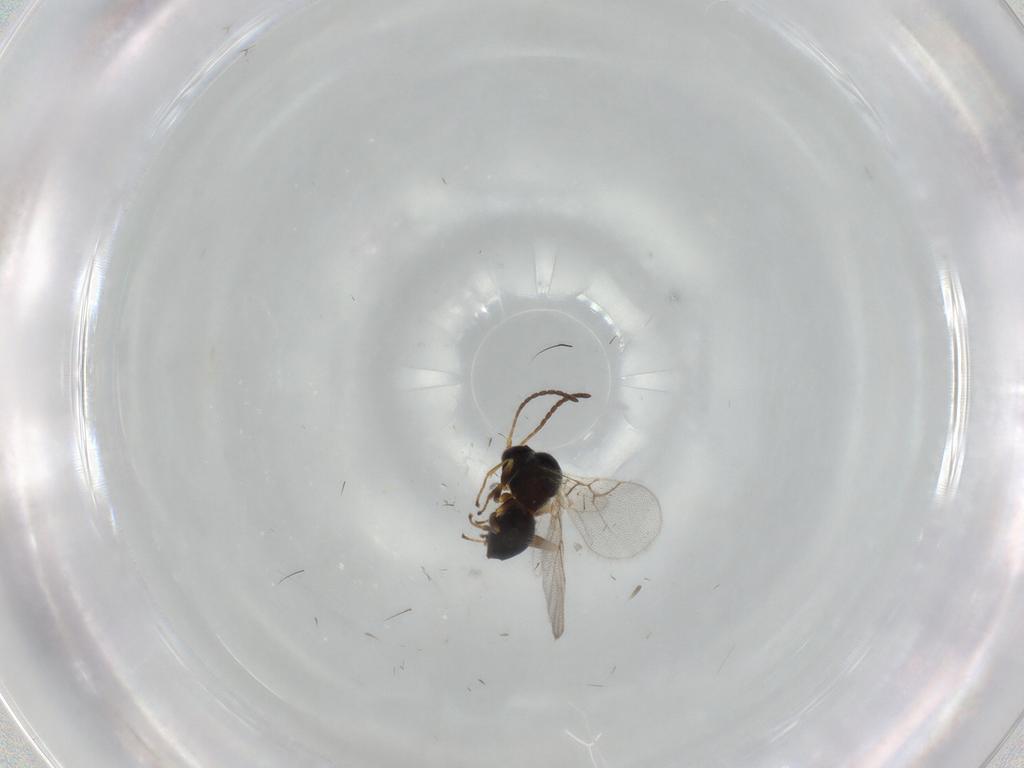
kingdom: Animalia
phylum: Arthropoda
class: Insecta
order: Hymenoptera
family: Figitidae
